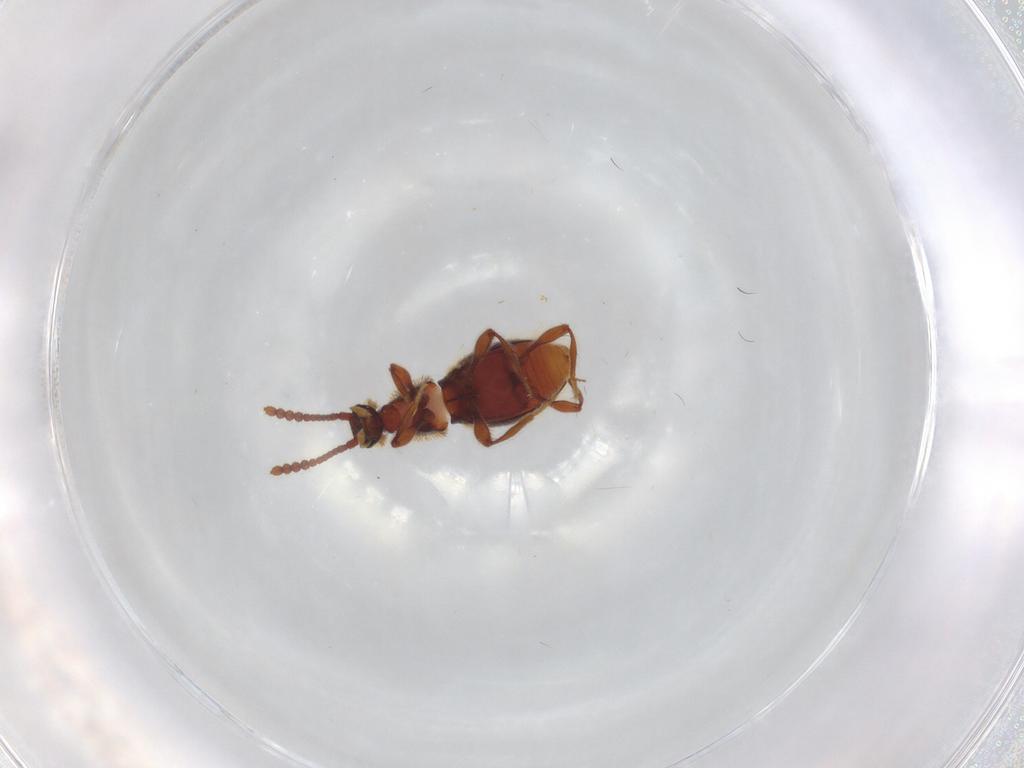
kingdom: Animalia
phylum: Arthropoda
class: Insecta
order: Coleoptera
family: Staphylinidae
